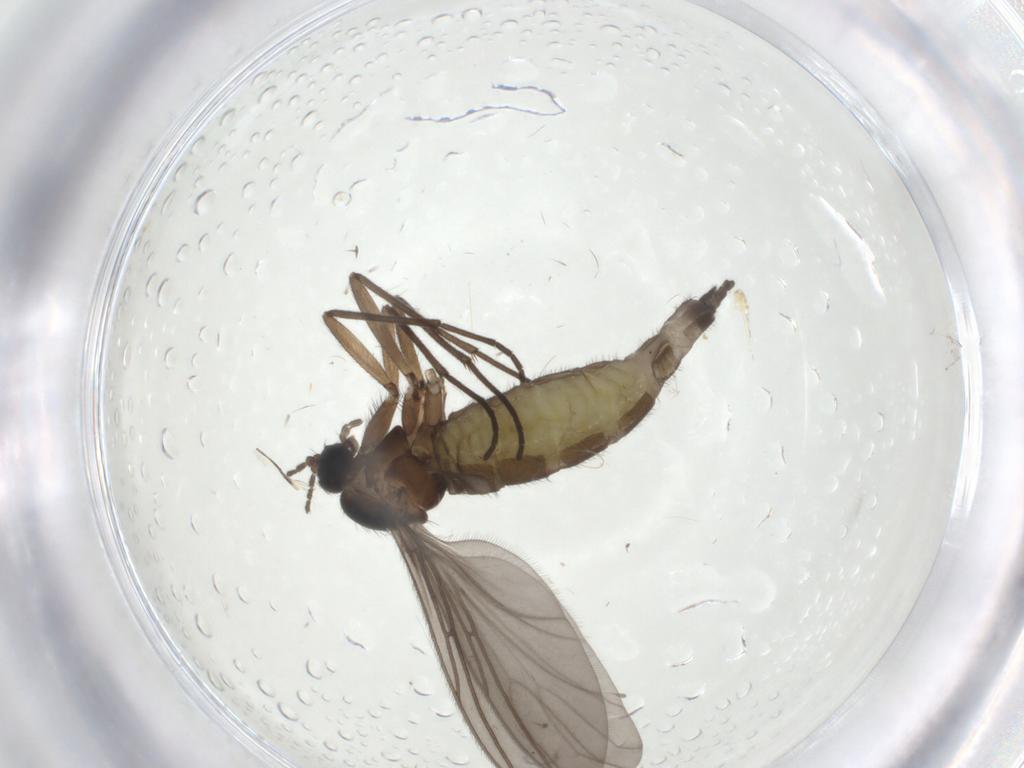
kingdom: Animalia
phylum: Arthropoda
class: Insecta
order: Diptera
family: Sciaridae
